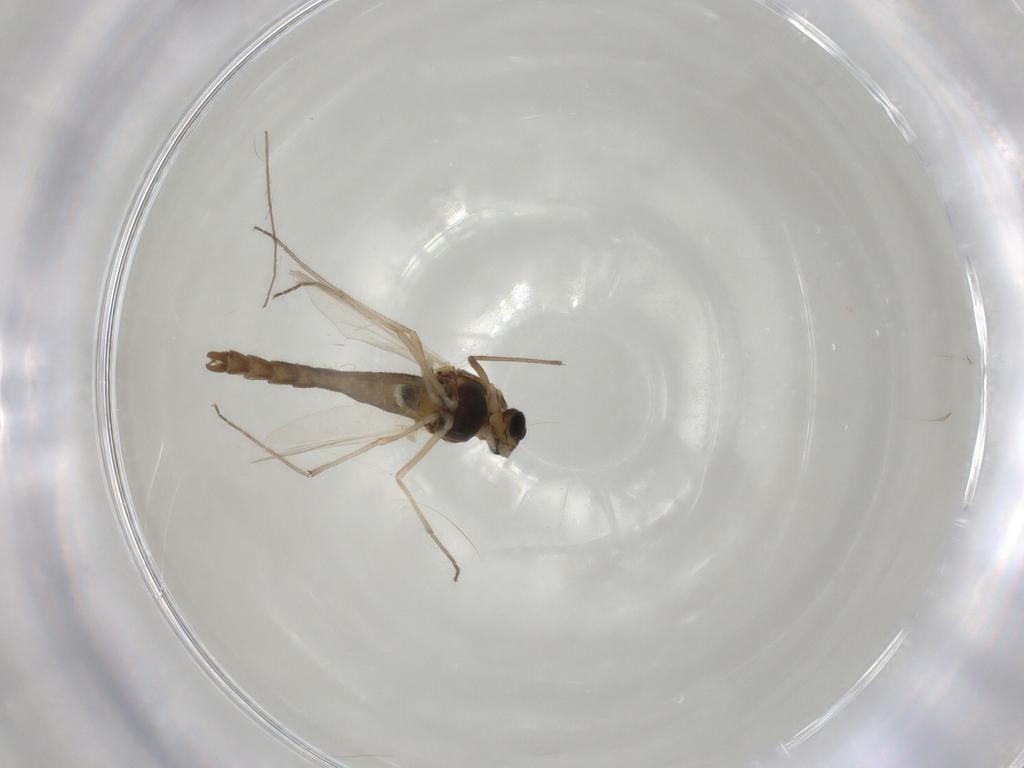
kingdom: Animalia
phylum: Arthropoda
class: Insecta
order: Diptera
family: Chironomidae
